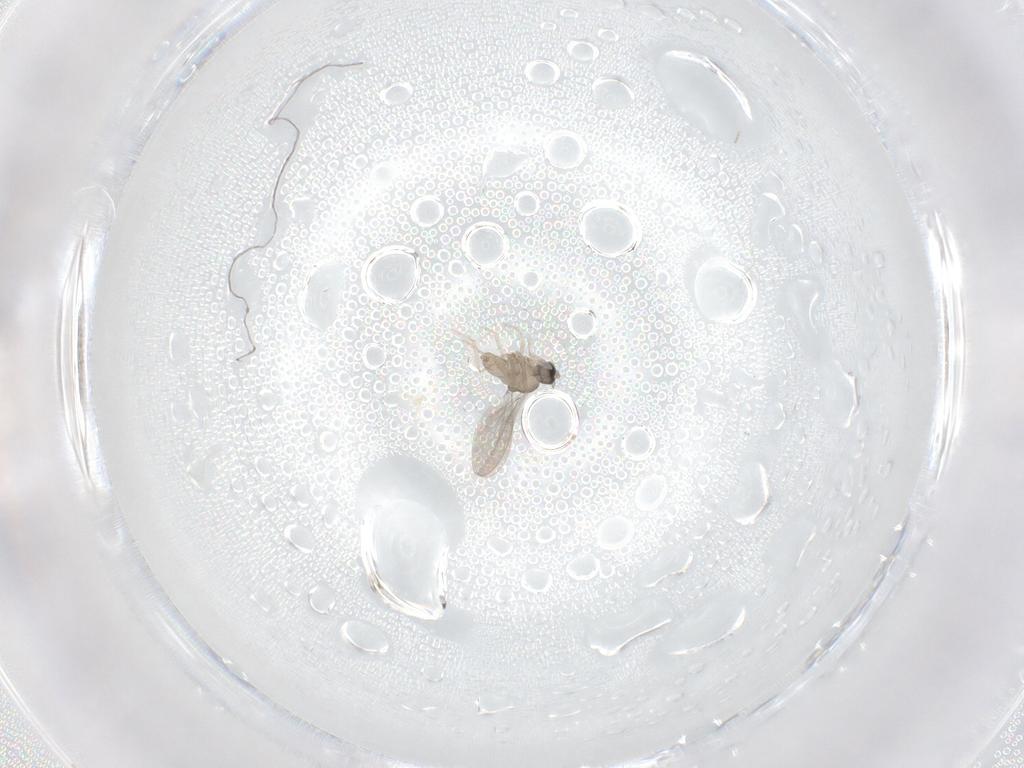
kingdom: Animalia
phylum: Arthropoda
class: Insecta
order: Diptera
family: Cecidomyiidae
